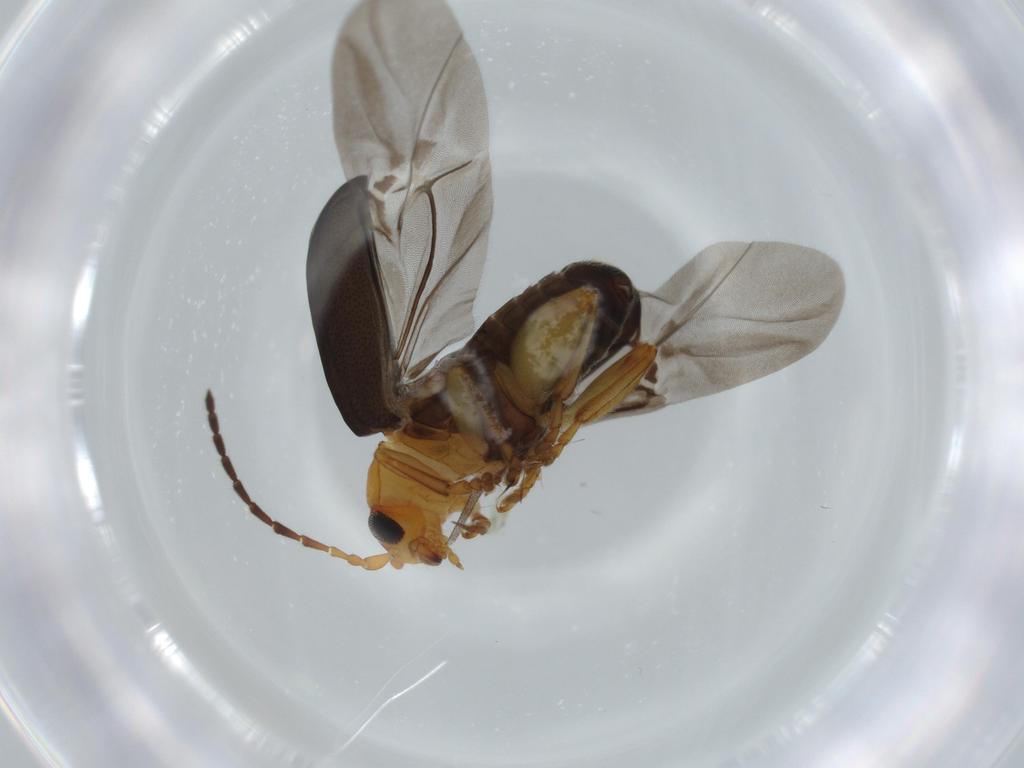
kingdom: Animalia
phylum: Arthropoda
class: Insecta
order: Coleoptera
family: Chrysomelidae
